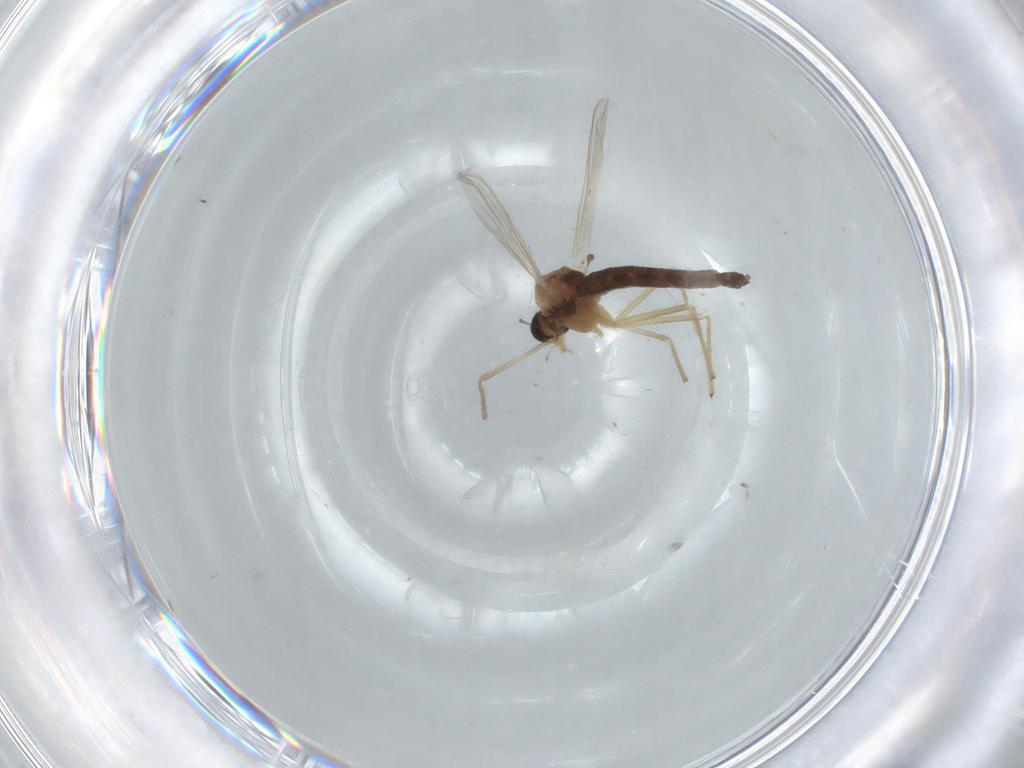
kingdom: Animalia
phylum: Arthropoda
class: Insecta
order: Diptera
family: Chironomidae
